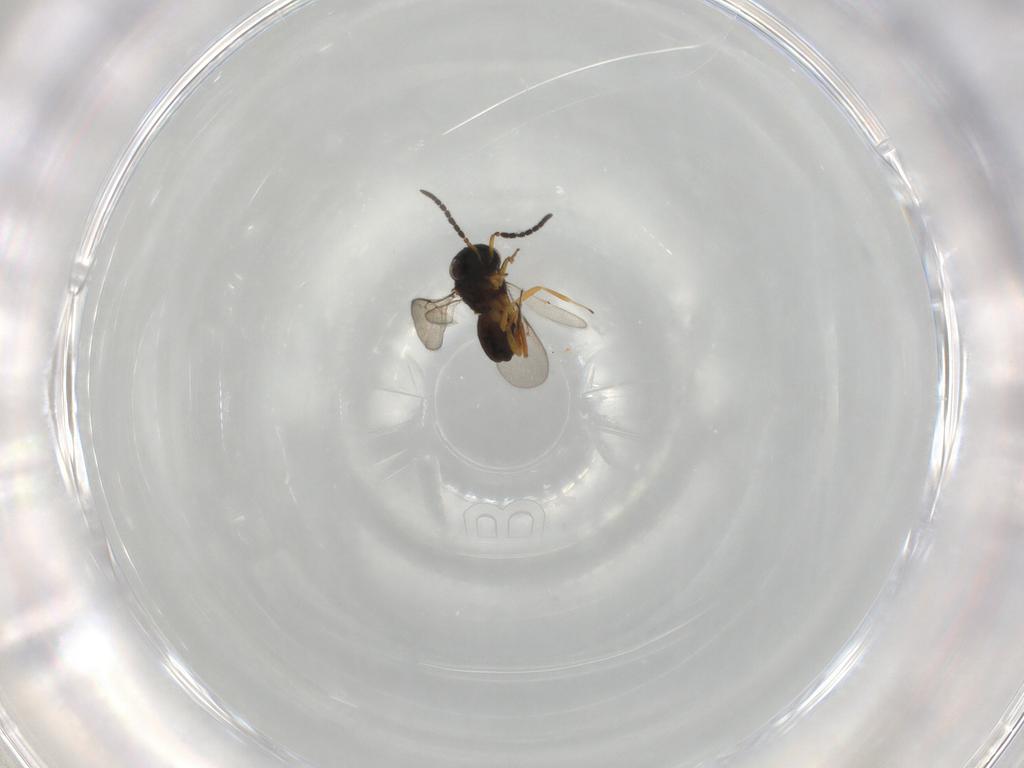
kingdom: Animalia
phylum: Arthropoda
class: Insecta
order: Hymenoptera
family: Scelionidae
